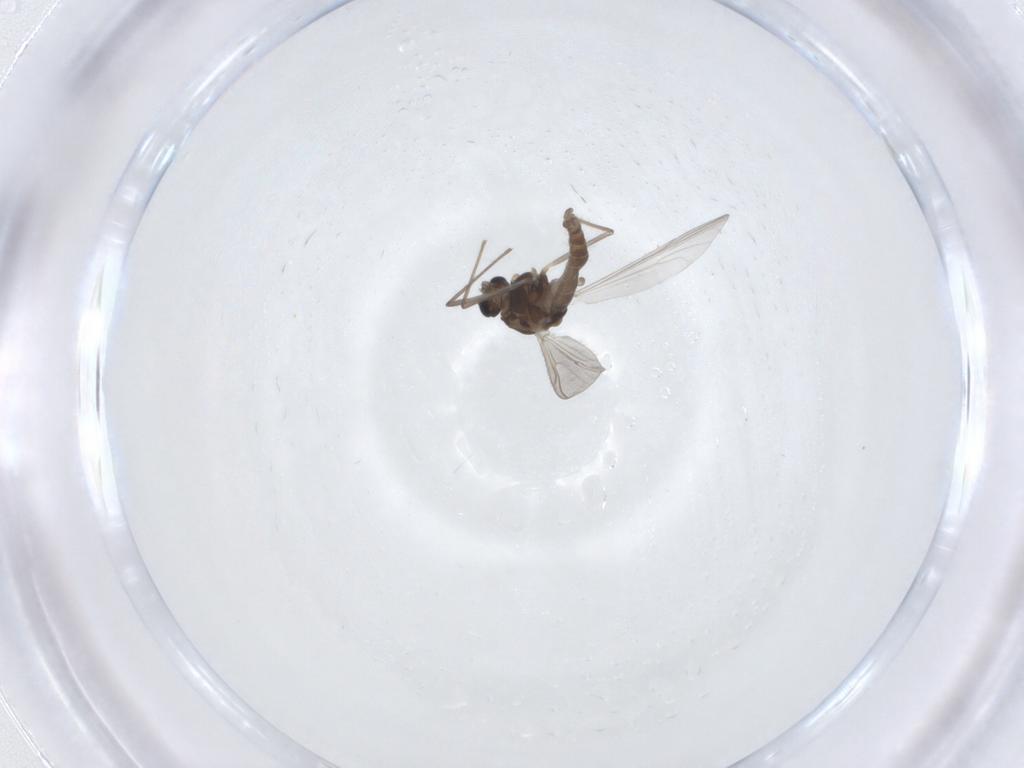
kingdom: Animalia
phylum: Arthropoda
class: Insecta
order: Diptera
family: Chironomidae
